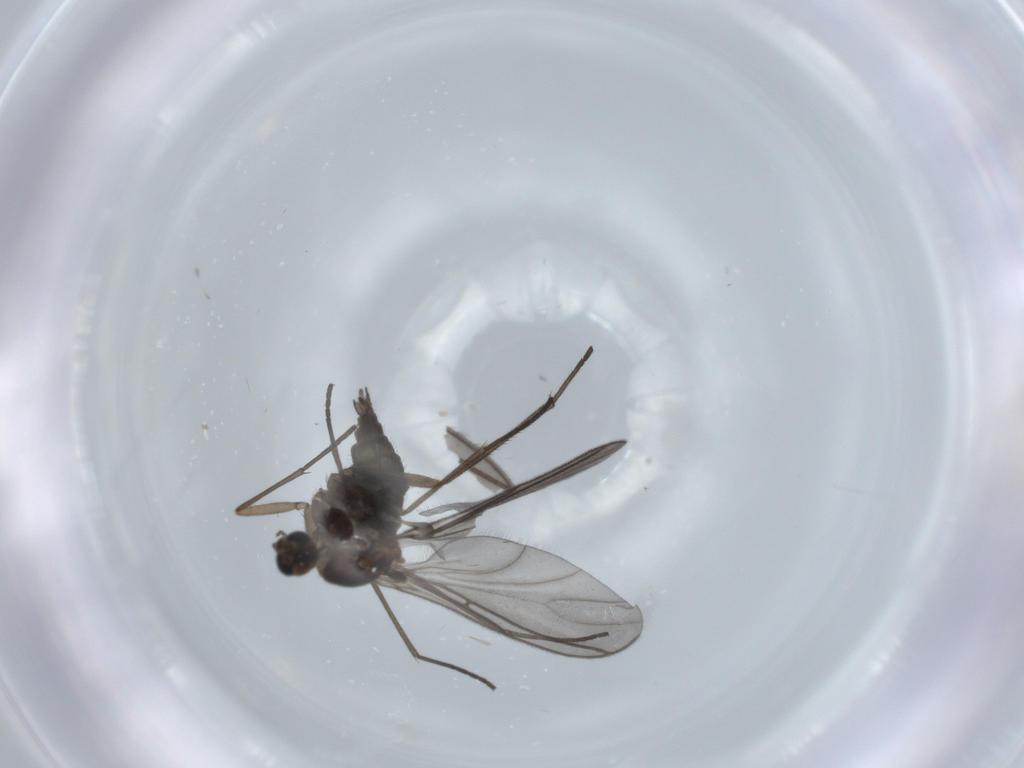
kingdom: Animalia
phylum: Arthropoda
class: Insecta
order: Diptera
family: Sciaridae
